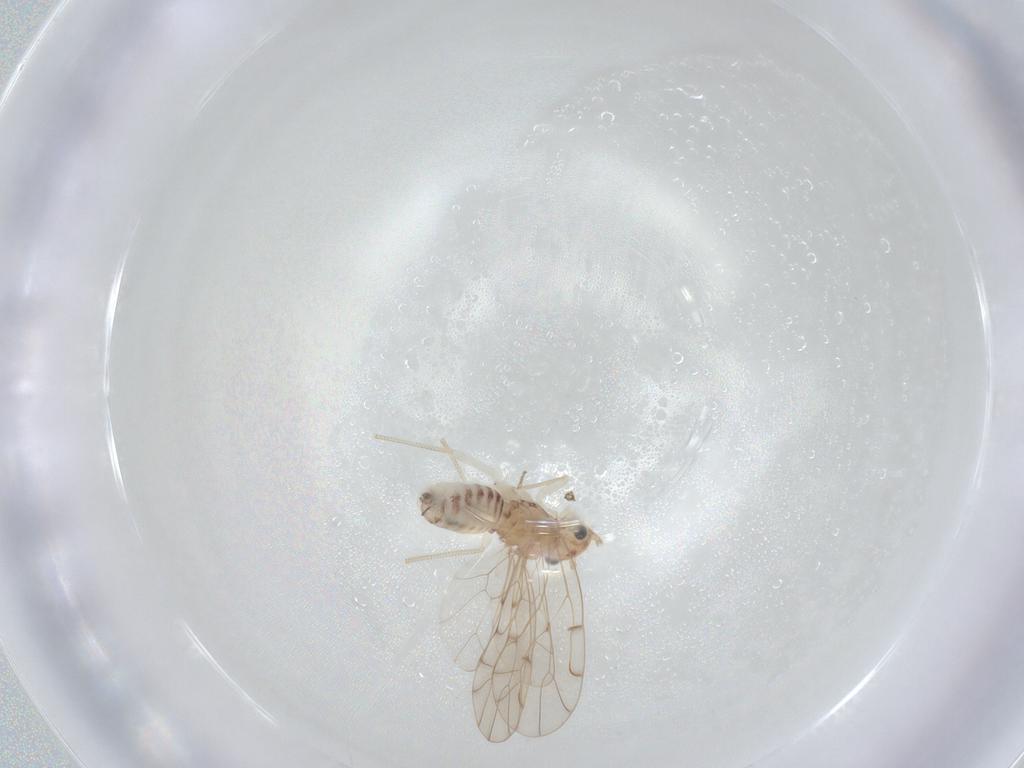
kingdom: Animalia
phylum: Arthropoda
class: Insecta
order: Diptera
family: Sciaridae
